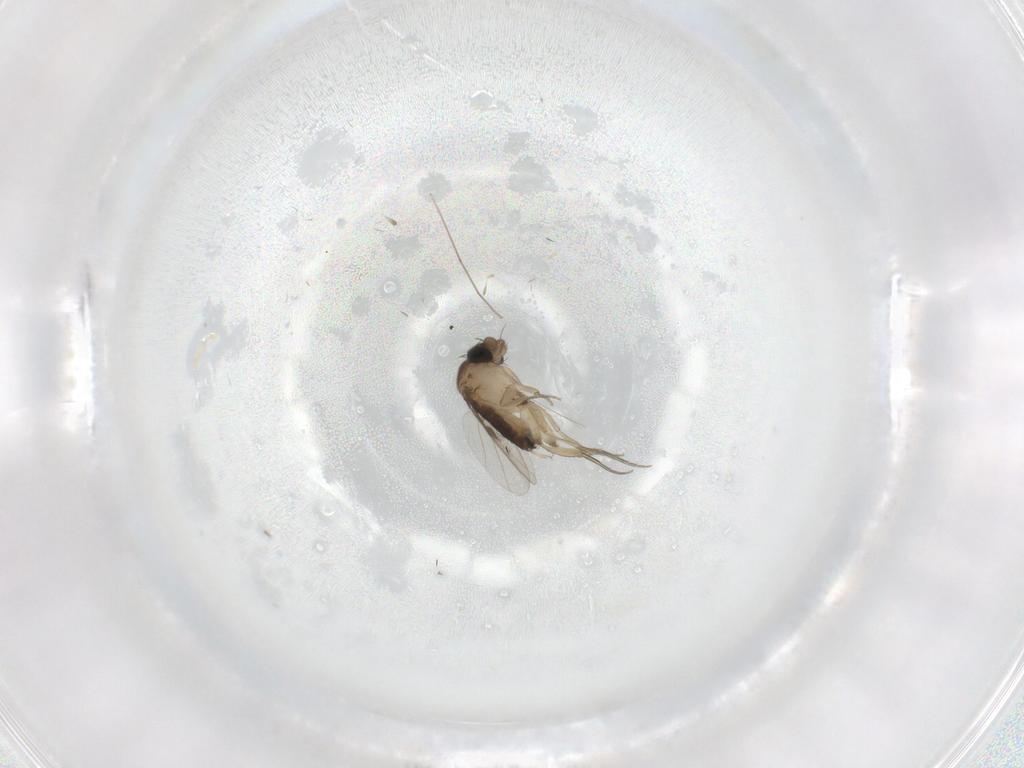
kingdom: Animalia
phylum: Arthropoda
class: Insecta
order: Diptera
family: Phoridae
